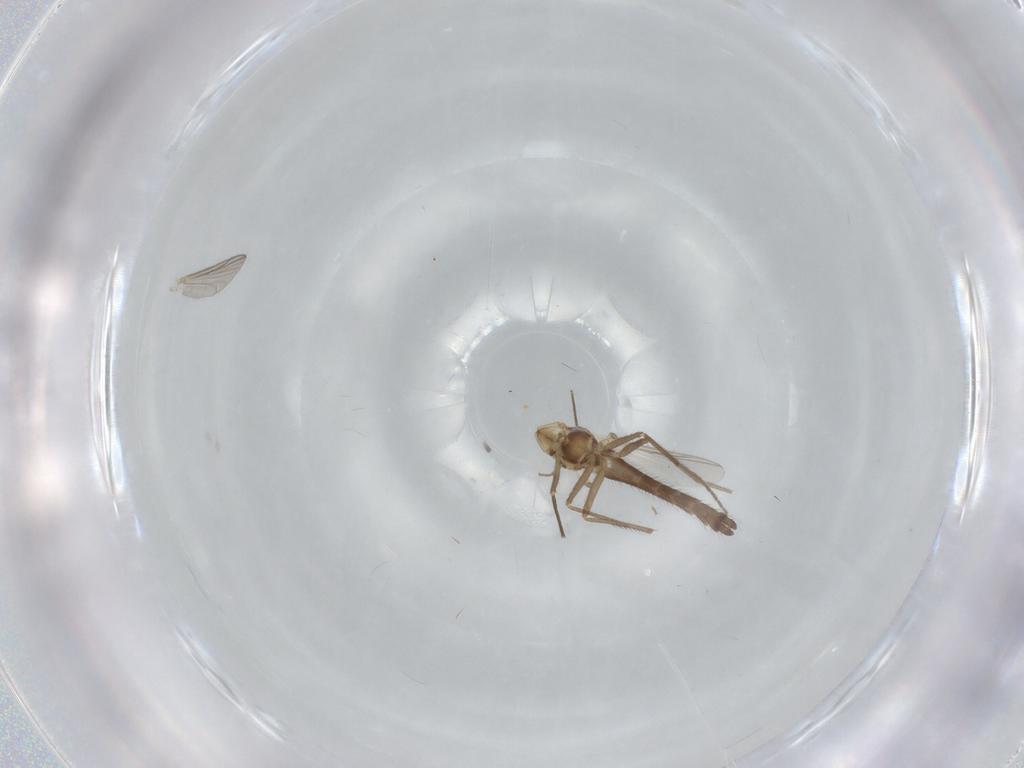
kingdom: Animalia
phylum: Arthropoda
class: Insecta
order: Diptera
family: Chironomidae
